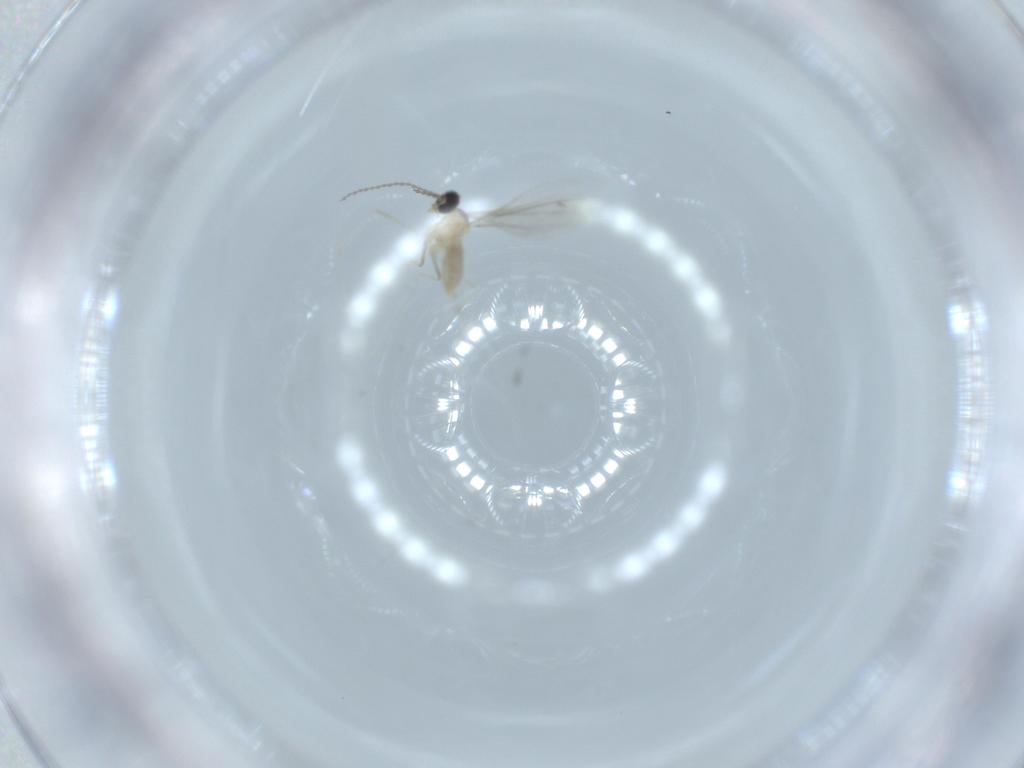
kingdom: Animalia
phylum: Arthropoda
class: Insecta
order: Diptera
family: Cecidomyiidae
